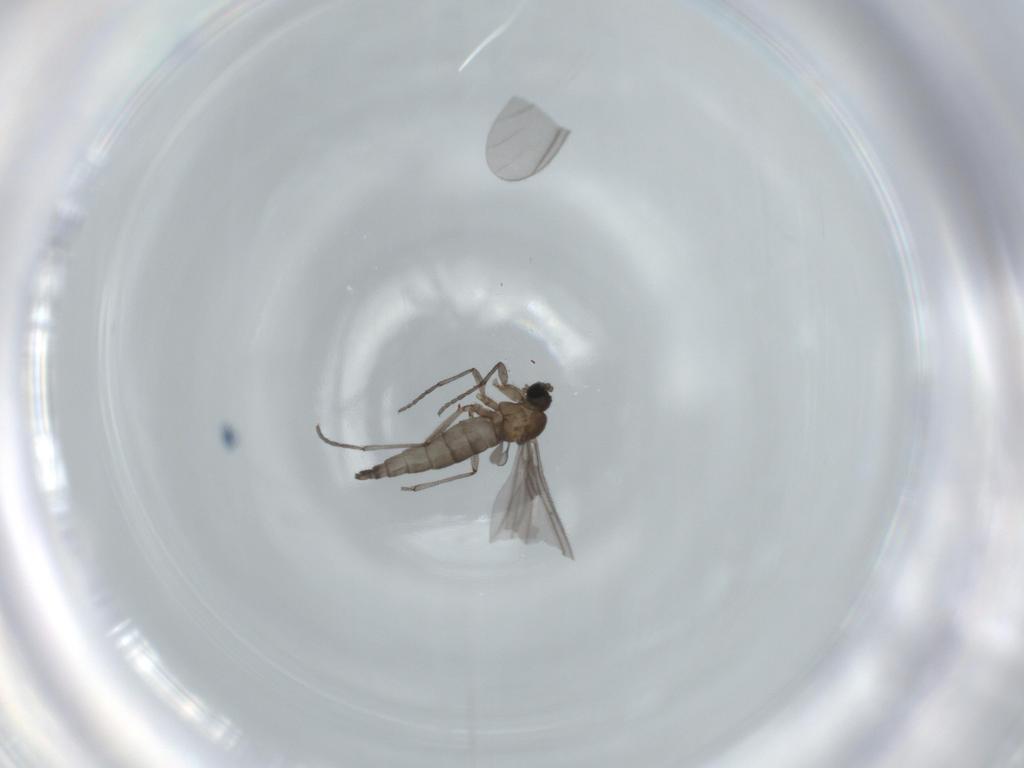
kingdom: Animalia
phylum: Arthropoda
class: Insecta
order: Diptera
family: Sciaridae
